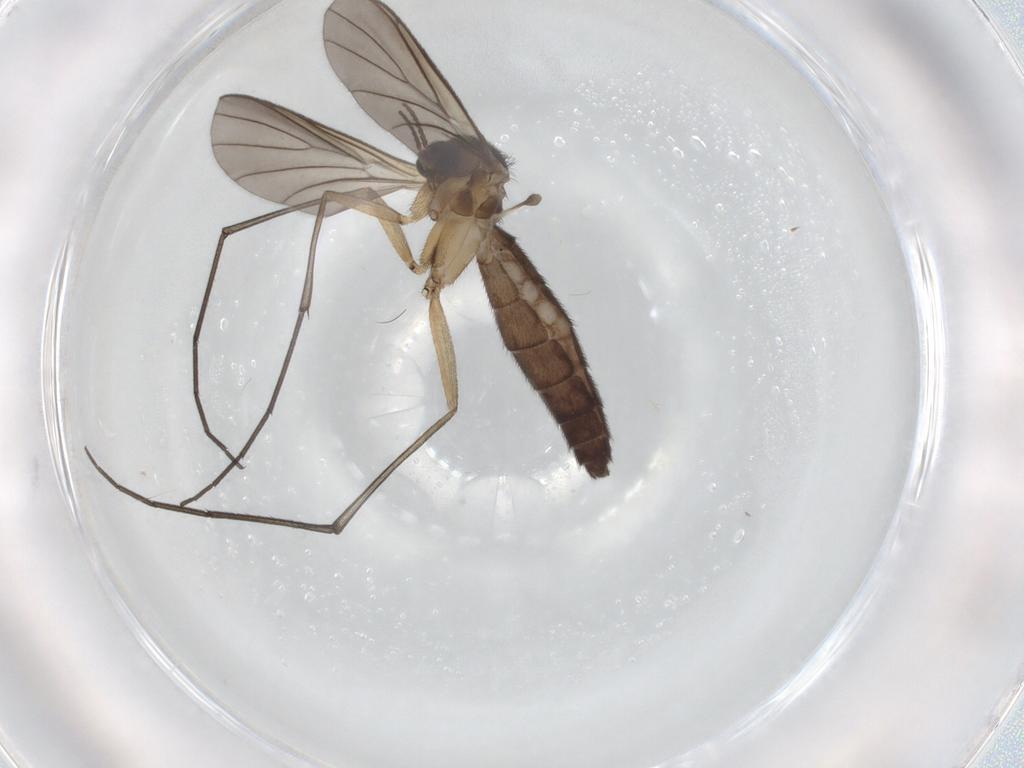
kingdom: Animalia
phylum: Arthropoda
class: Insecta
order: Diptera
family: Keroplatidae
